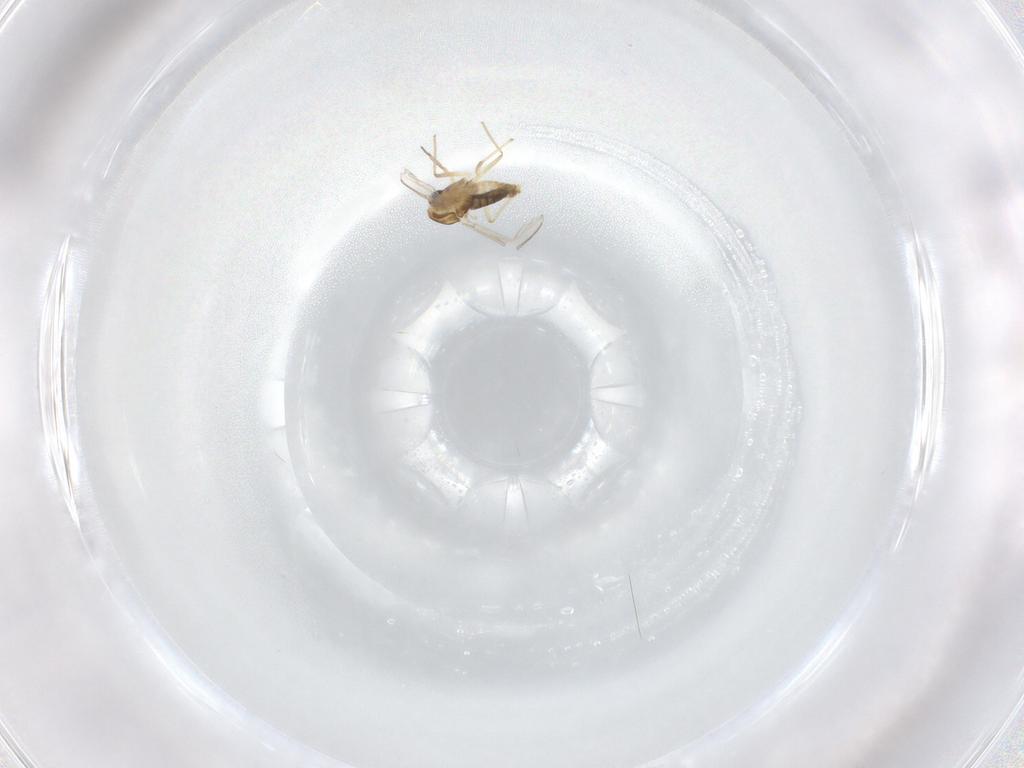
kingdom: Animalia
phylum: Arthropoda
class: Insecta
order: Diptera
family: Chironomidae
